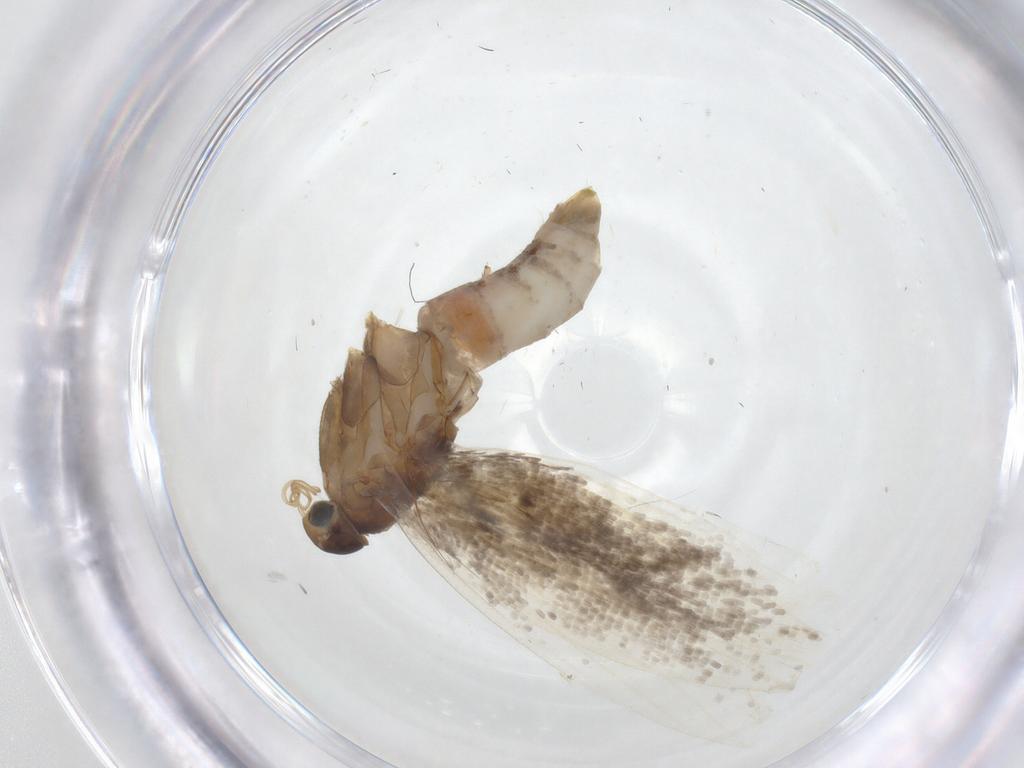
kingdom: Animalia
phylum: Arthropoda
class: Insecta
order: Lepidoptera
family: Glyphipterigidae
